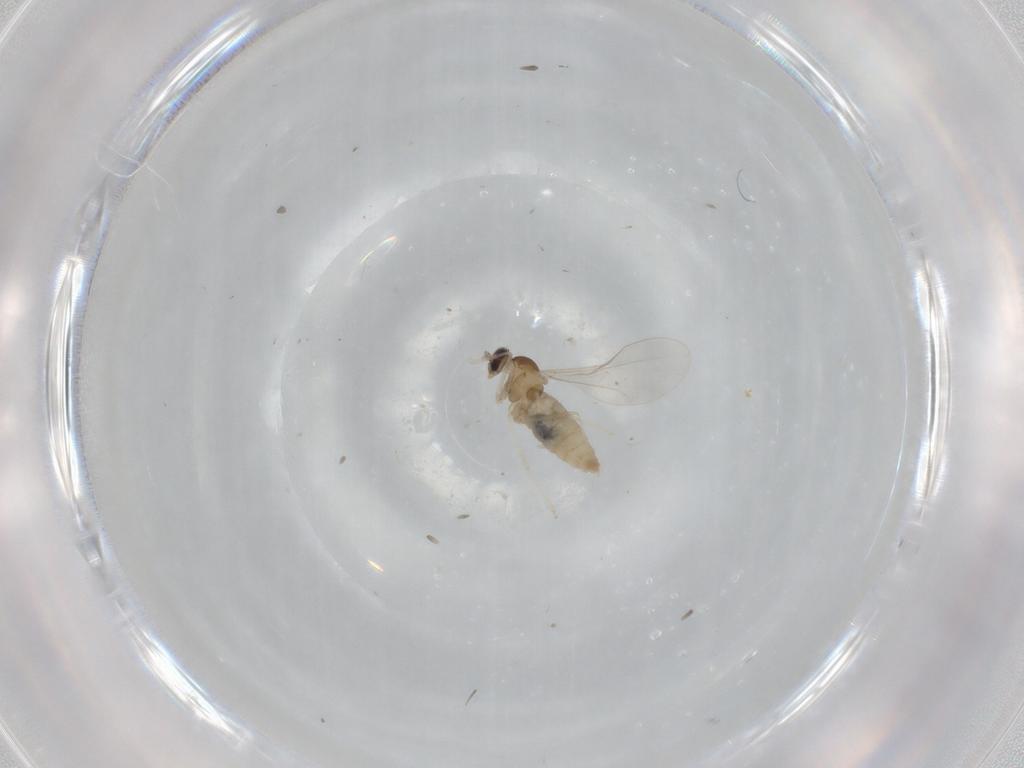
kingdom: Animalia
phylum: Arthropoda
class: Insecta
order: Diptera
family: Cecidomyiidae
